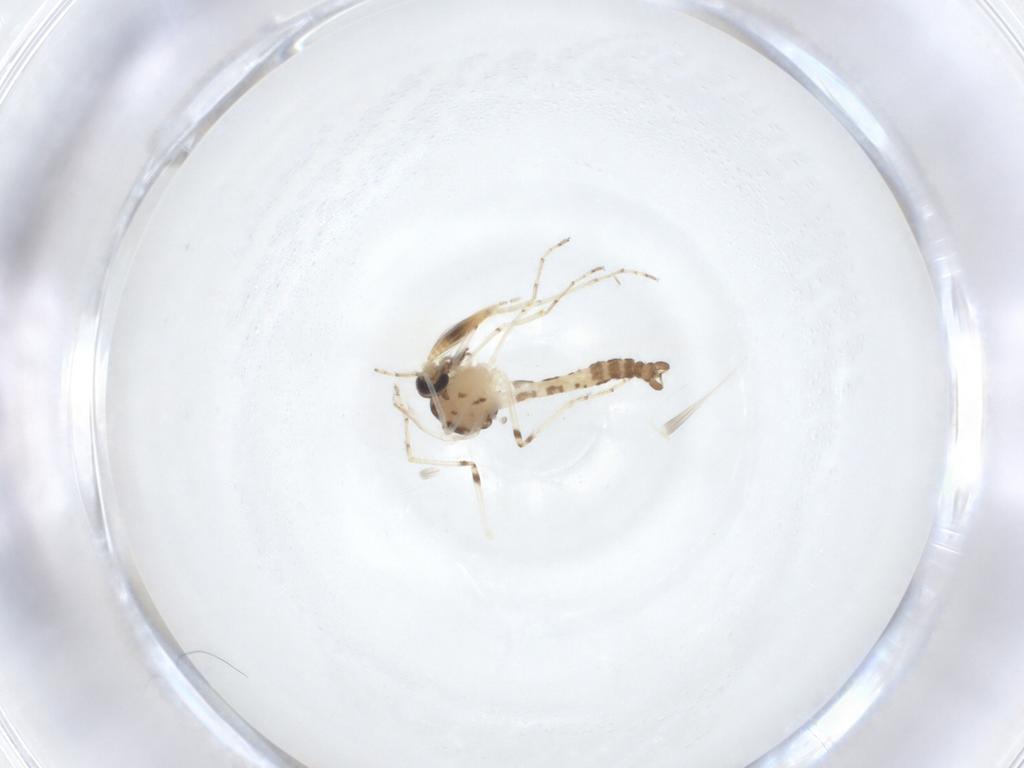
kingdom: Animalia
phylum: Arthropoda
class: Insecta
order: Diptera
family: Ceratopogonidae
